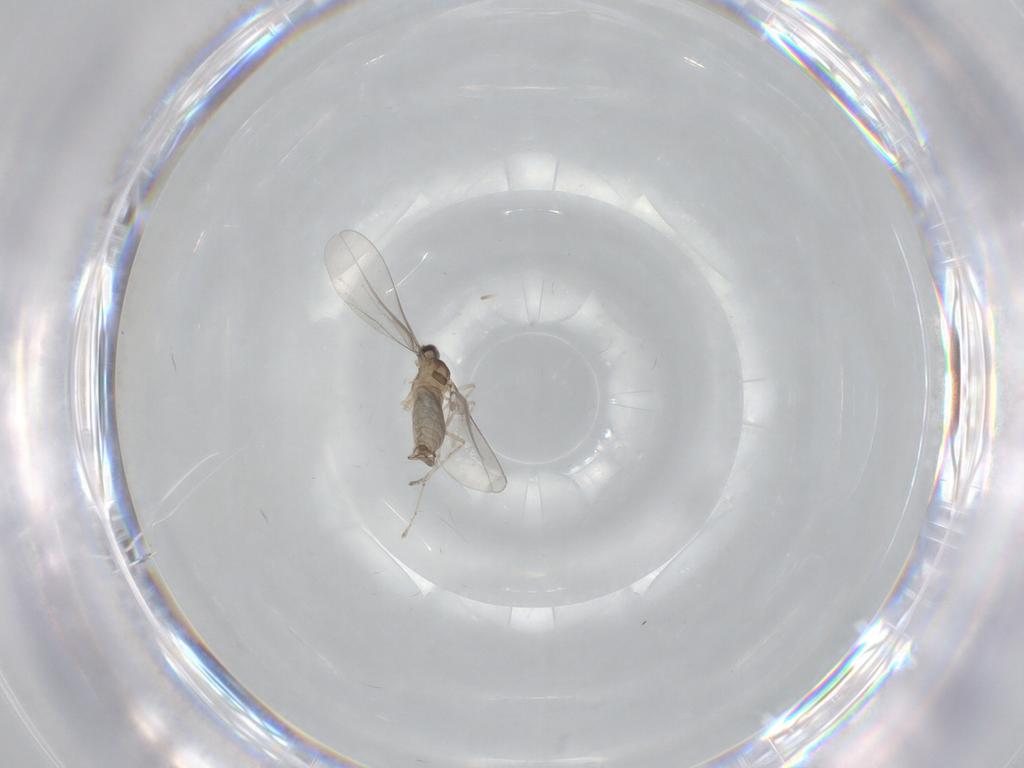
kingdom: Animalia
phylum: Arthropoda
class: Insecta
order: Diptera
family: Cecidomyiidae
